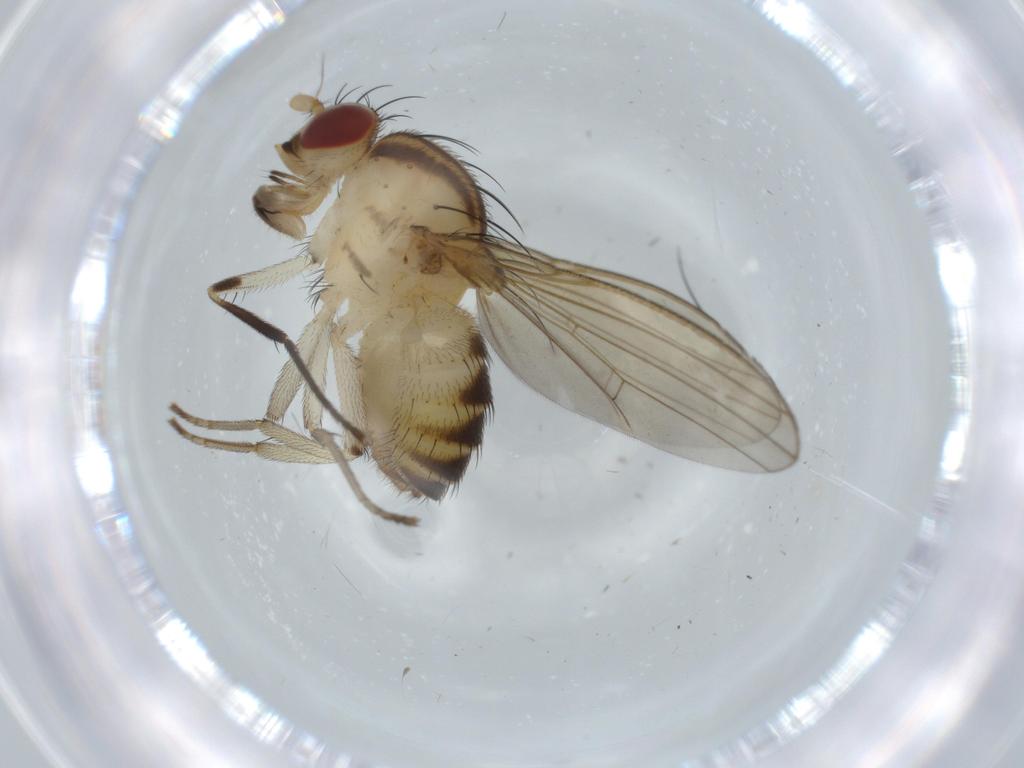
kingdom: Animalia
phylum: Arthropoda
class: Insecta
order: Diptera
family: Lauxaniidae
